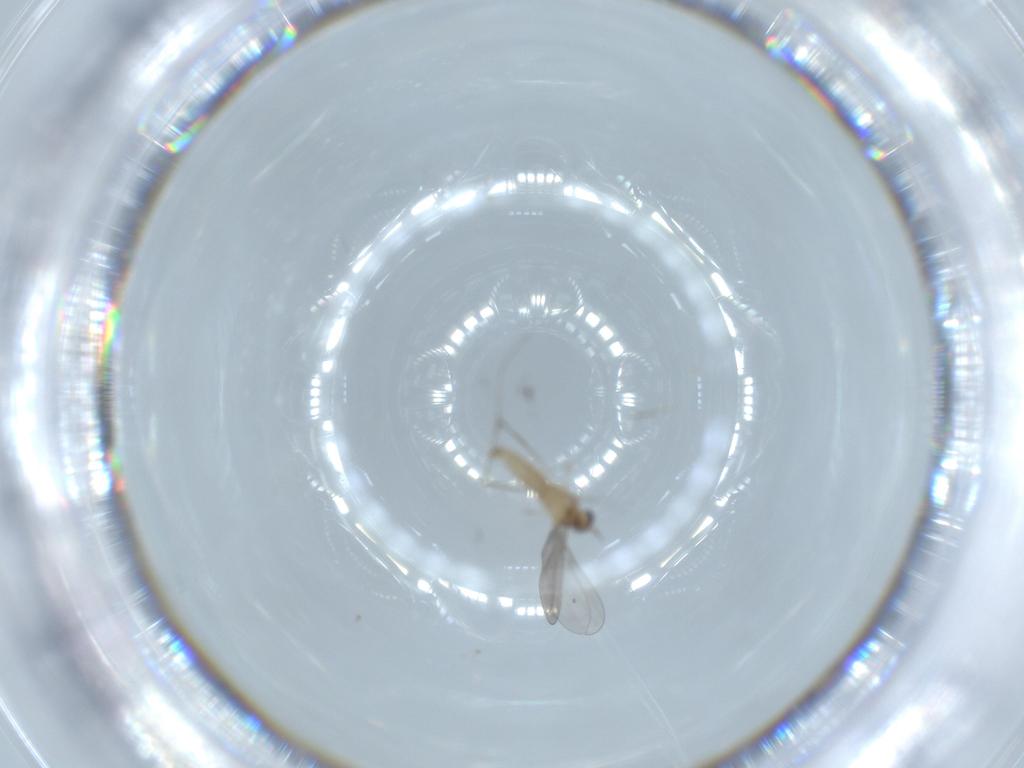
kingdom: Animalia
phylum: Arthropoda
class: Insecta
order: Diptera
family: Cecidomyiidae
